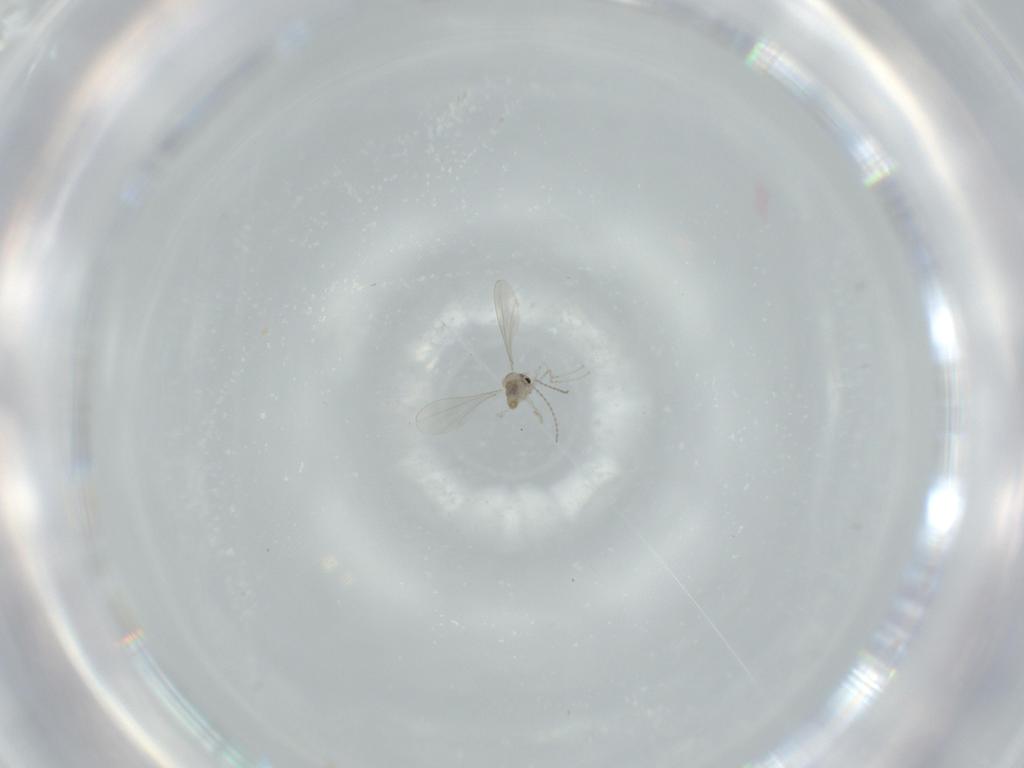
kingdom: Animalia
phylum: Arthropoda
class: Insecta
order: Diptera
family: Cecidomyiidae
